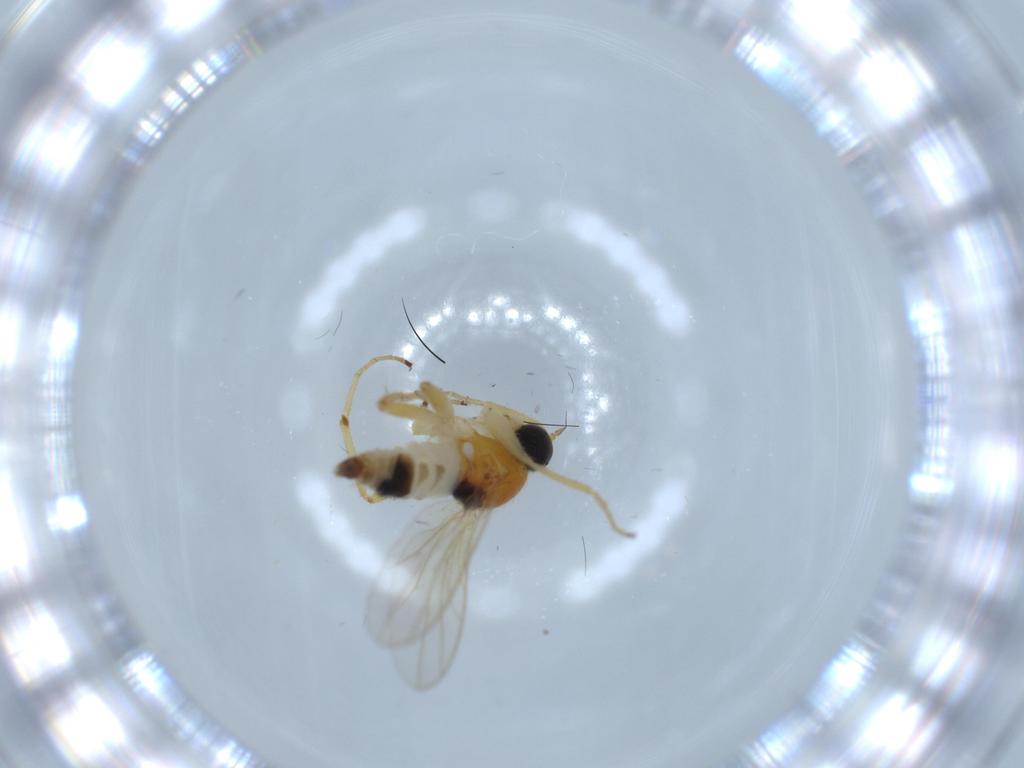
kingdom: Animalia
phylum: Arthropoda
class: Insecta
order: Diptera
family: Hybotidae
